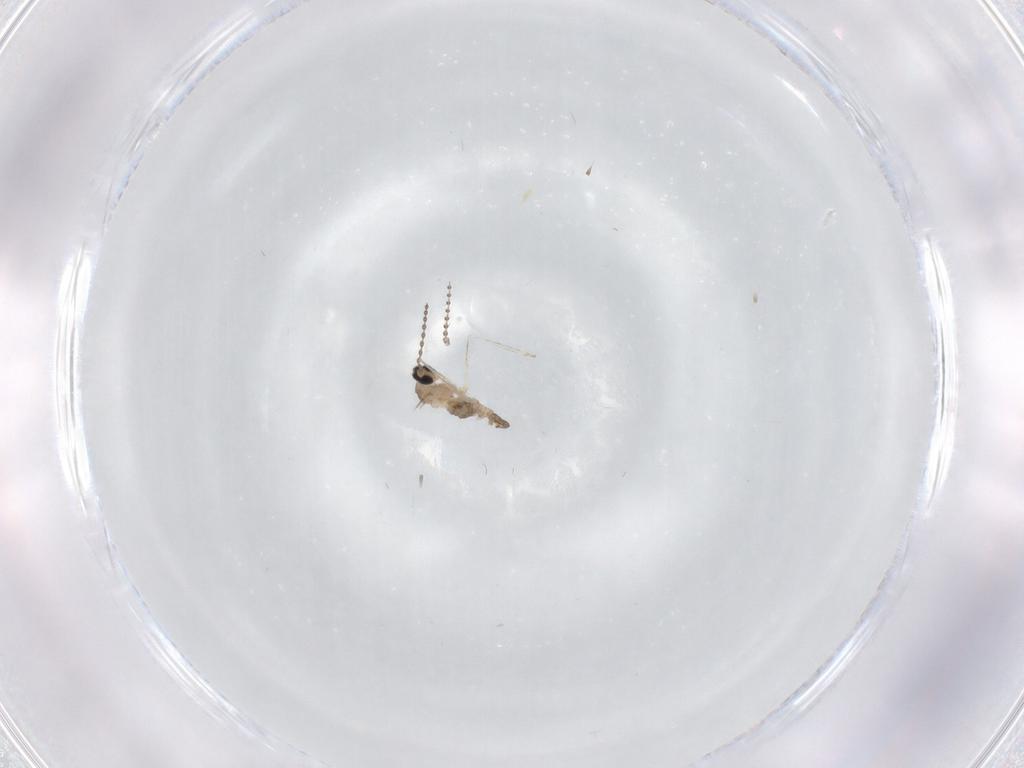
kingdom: Animalia
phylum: Arthropoda
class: Insecta
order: Diptera
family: Cecidomyiidae
